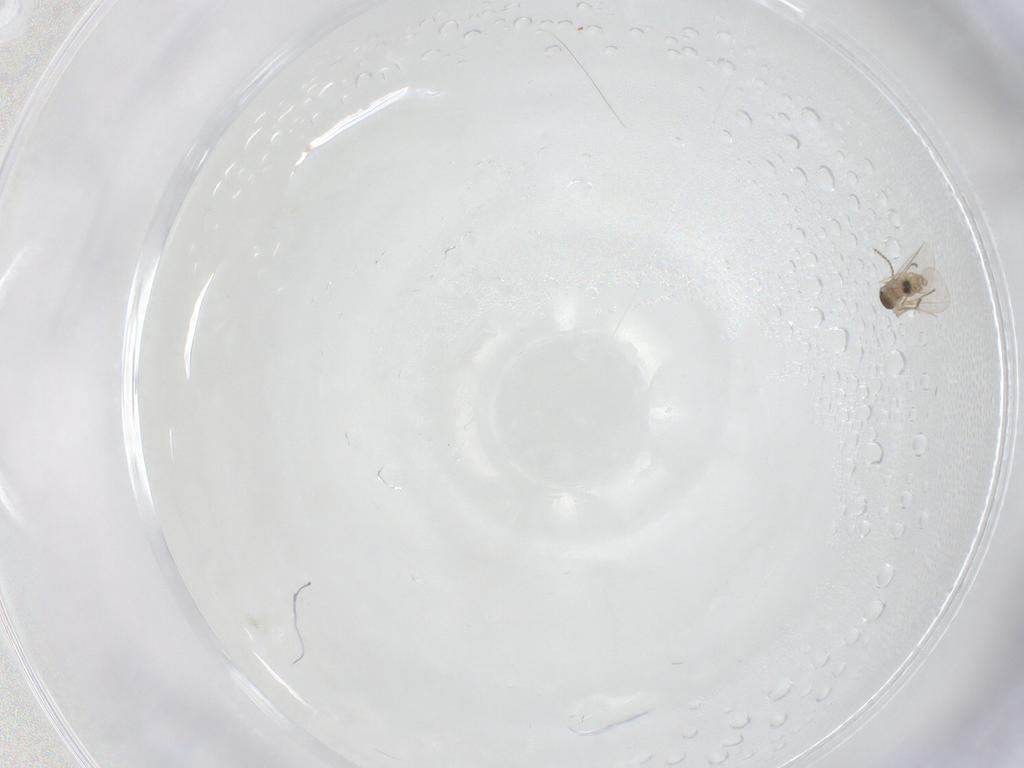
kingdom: Animalia
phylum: Arthropoda
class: Insecta
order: Diptera
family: Cecidomyiidae
